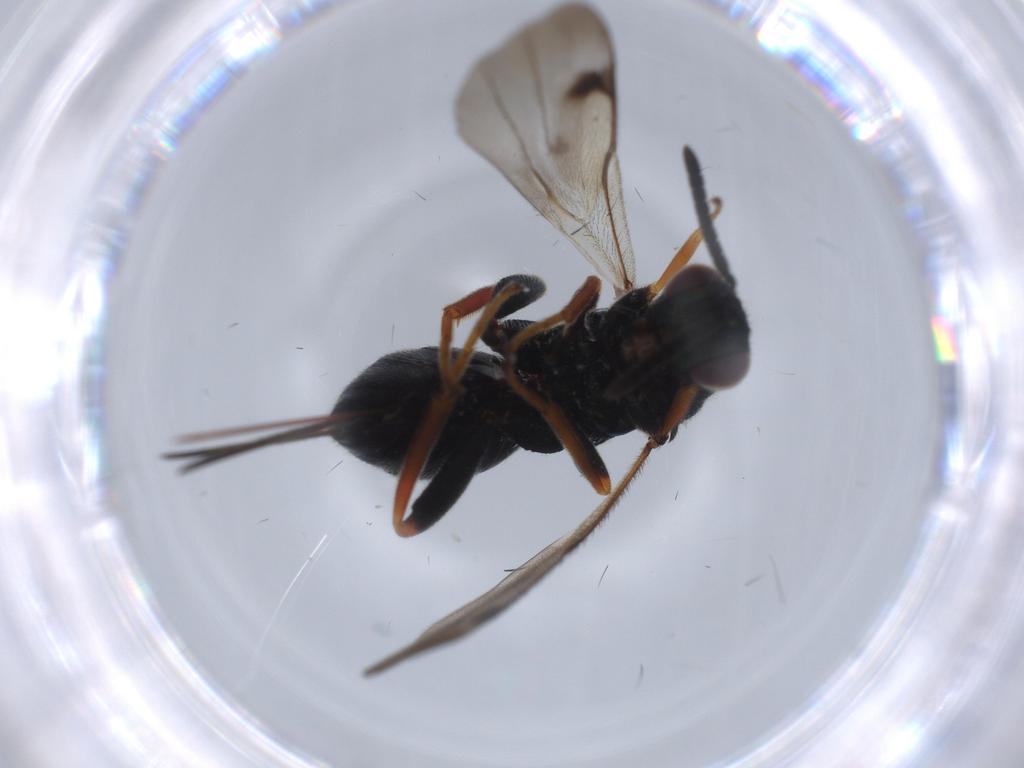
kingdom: Animalia
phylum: Arthropoda
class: Insecta
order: Hymenoptera
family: Torymidae
